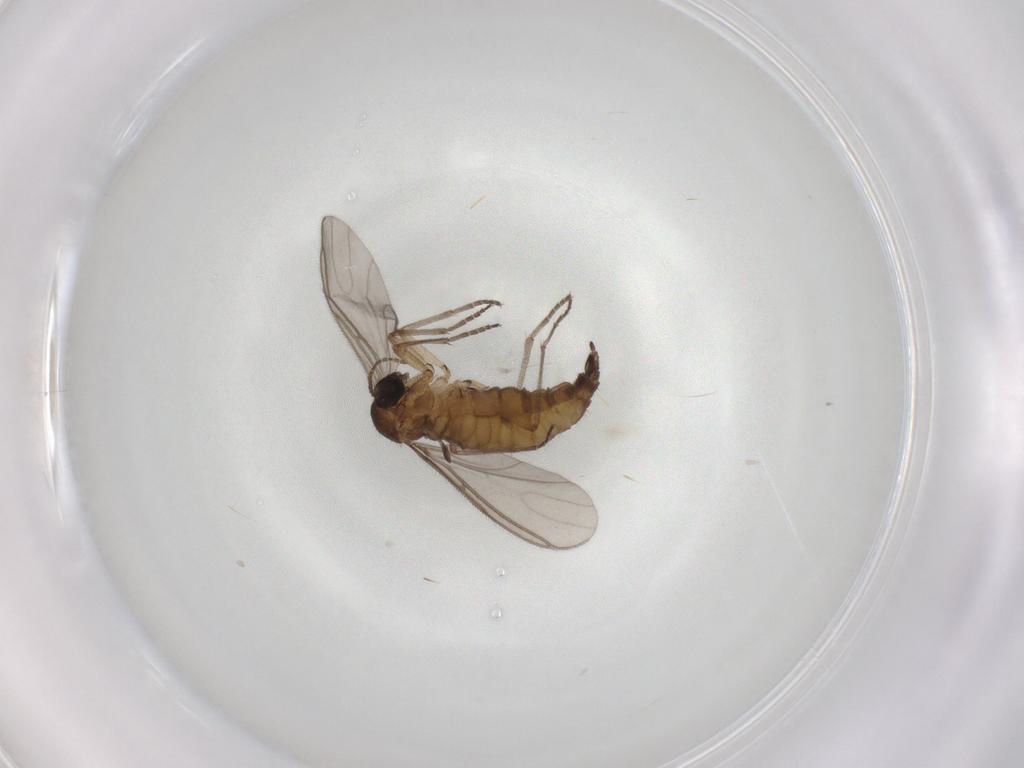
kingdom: Animalia
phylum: Arthropoda
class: Insecta
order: Diptera
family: Sciaridae
